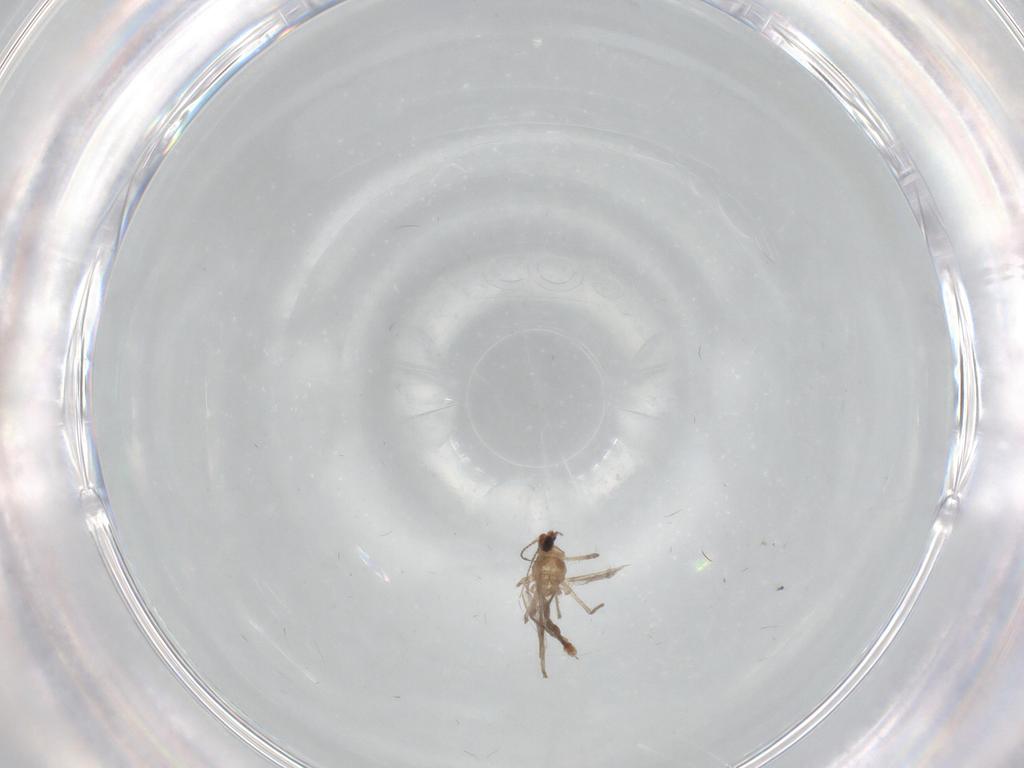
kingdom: Animalia
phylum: Arthropoda
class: Insecta
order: Diptera
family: Chironomidae
